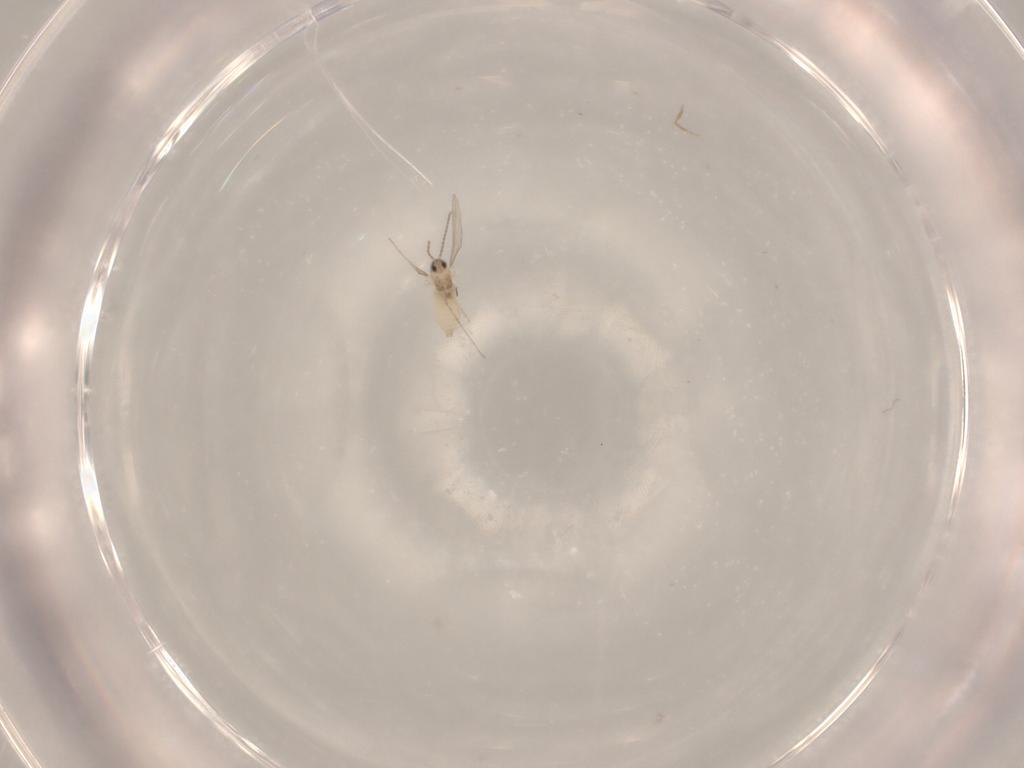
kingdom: Animalia
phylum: Arthropoda
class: Insecta
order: Diptera
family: Cecidomyiidae
